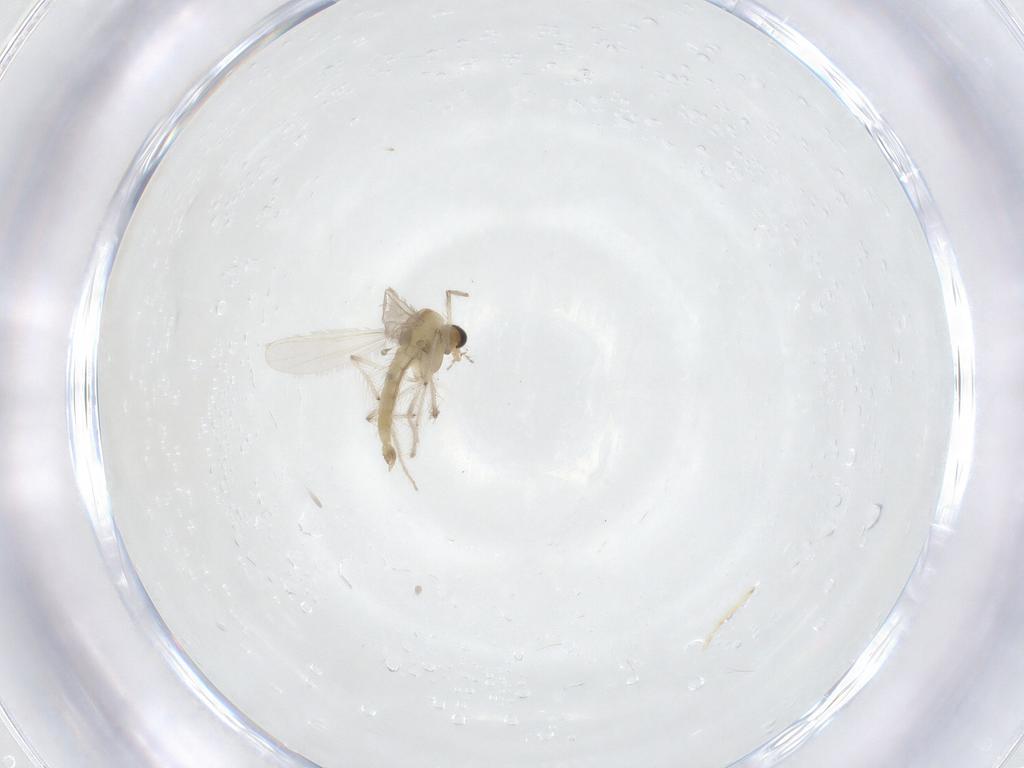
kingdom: Animalia
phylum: Arthropoda
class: Insecta
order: Diptera
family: Chironomidae
